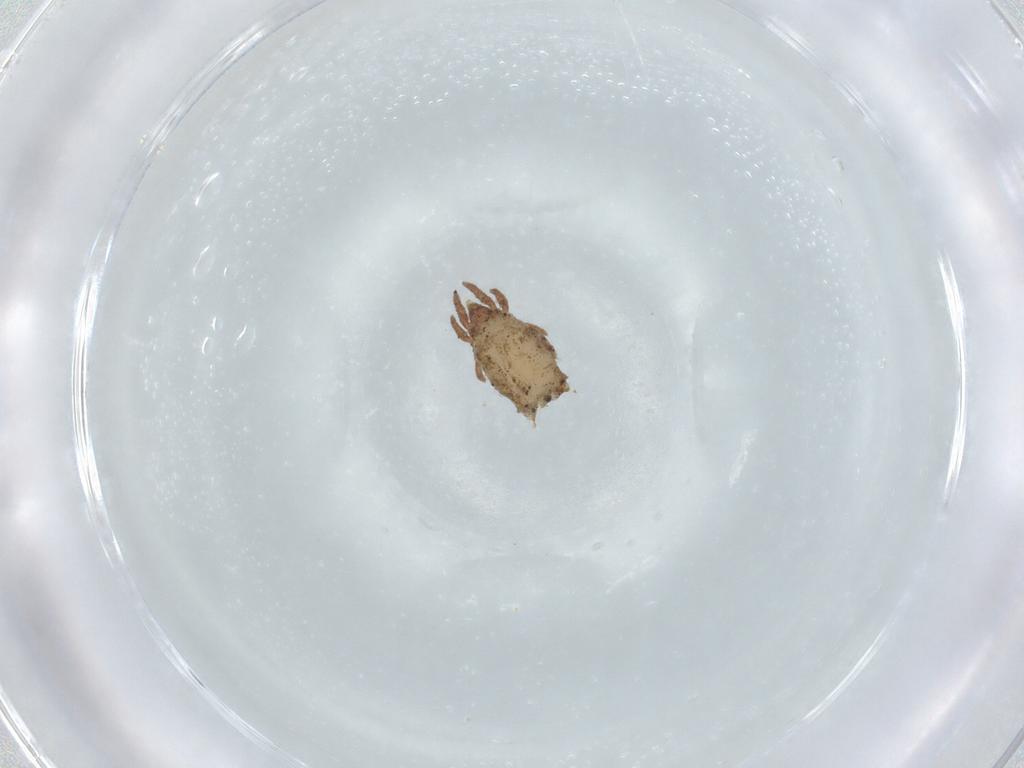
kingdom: Animalia
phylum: Arthropoda
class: Arachnida
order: Sarcoptiformes
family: Crotoniidae
